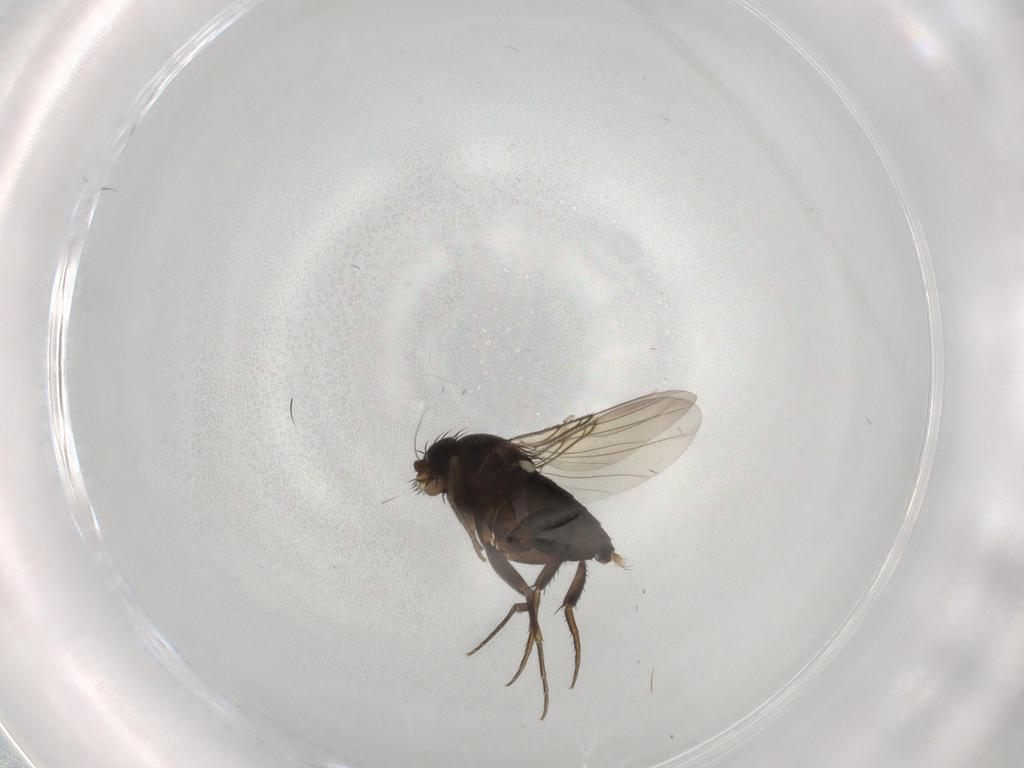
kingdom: Animalia
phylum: Arthropoda
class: Insecta
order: Diptera
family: Phoridae
